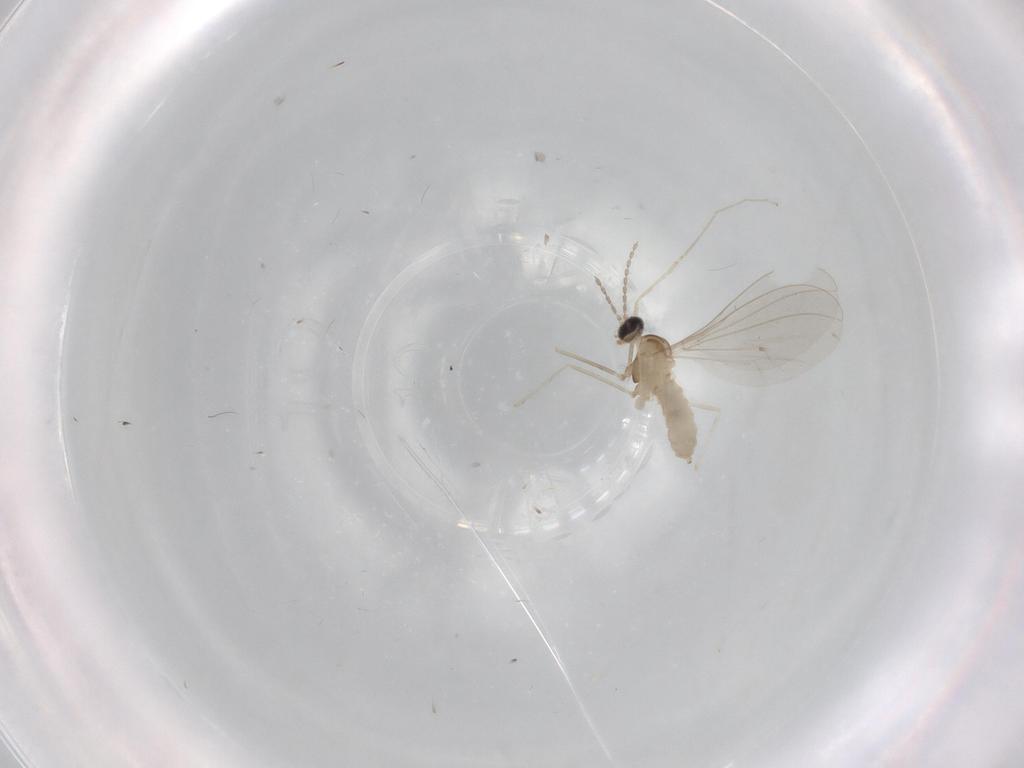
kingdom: Animalia
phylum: Arthropoda
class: Insecta
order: Diptera
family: Cecidomyiidae
